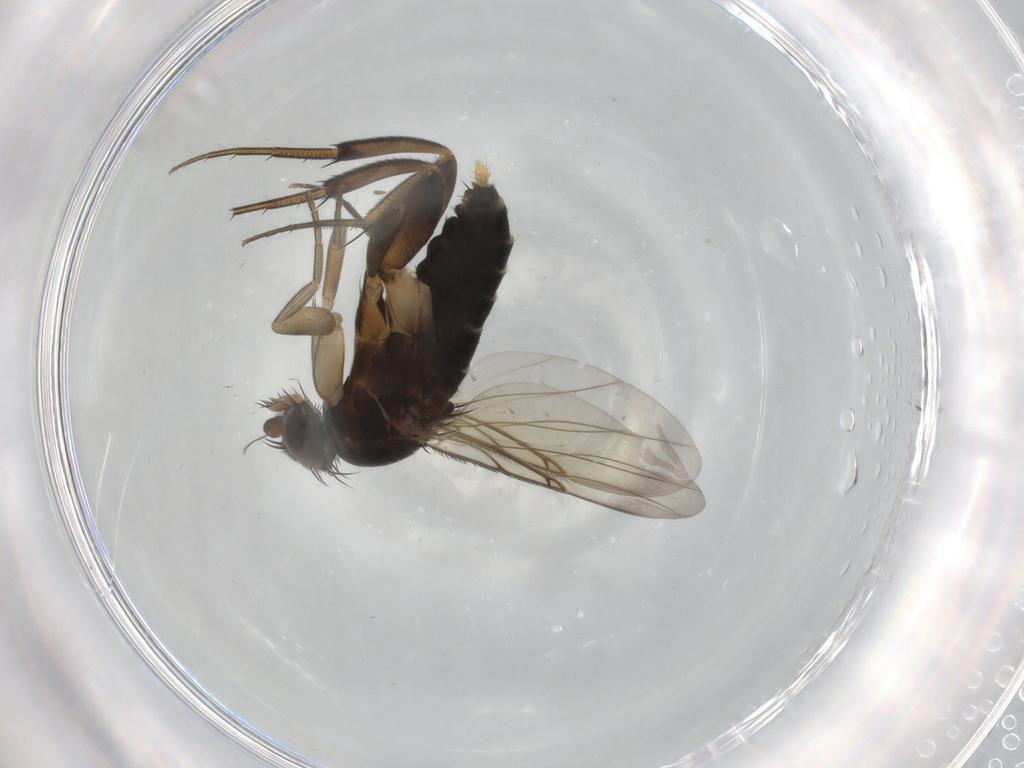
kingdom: Animalia
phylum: Arthropoda
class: Insecta
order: Diptera
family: Phoridae
